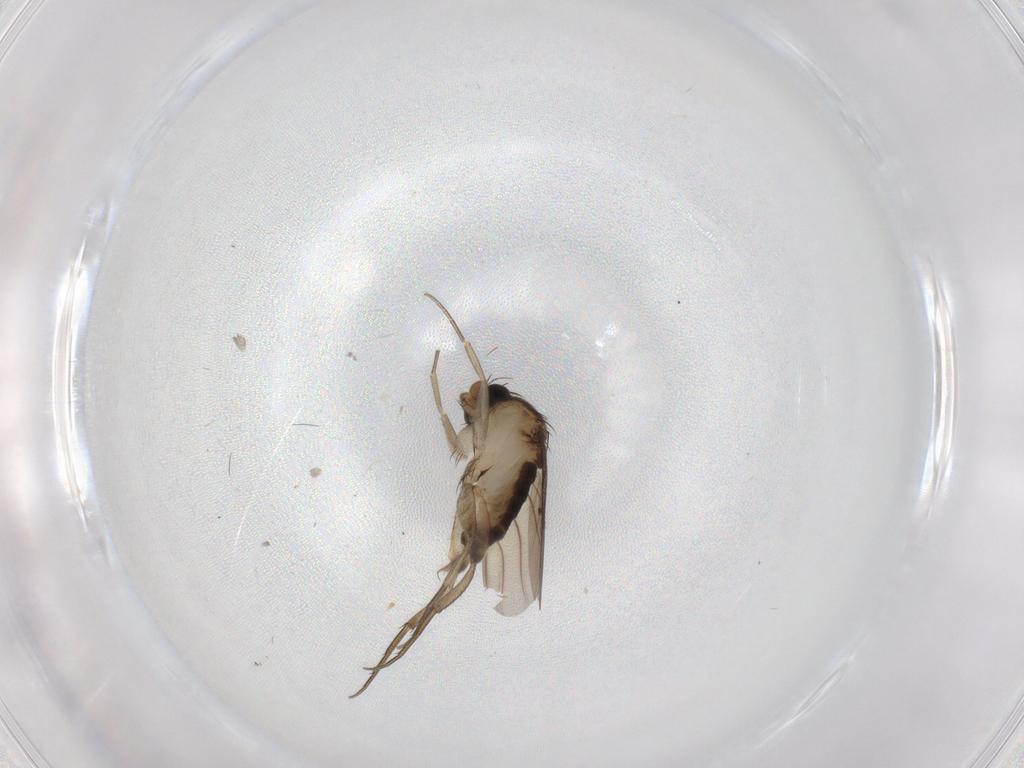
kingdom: Animalia
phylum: Arthropoda
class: Insecta
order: Diptera
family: Phoridae
